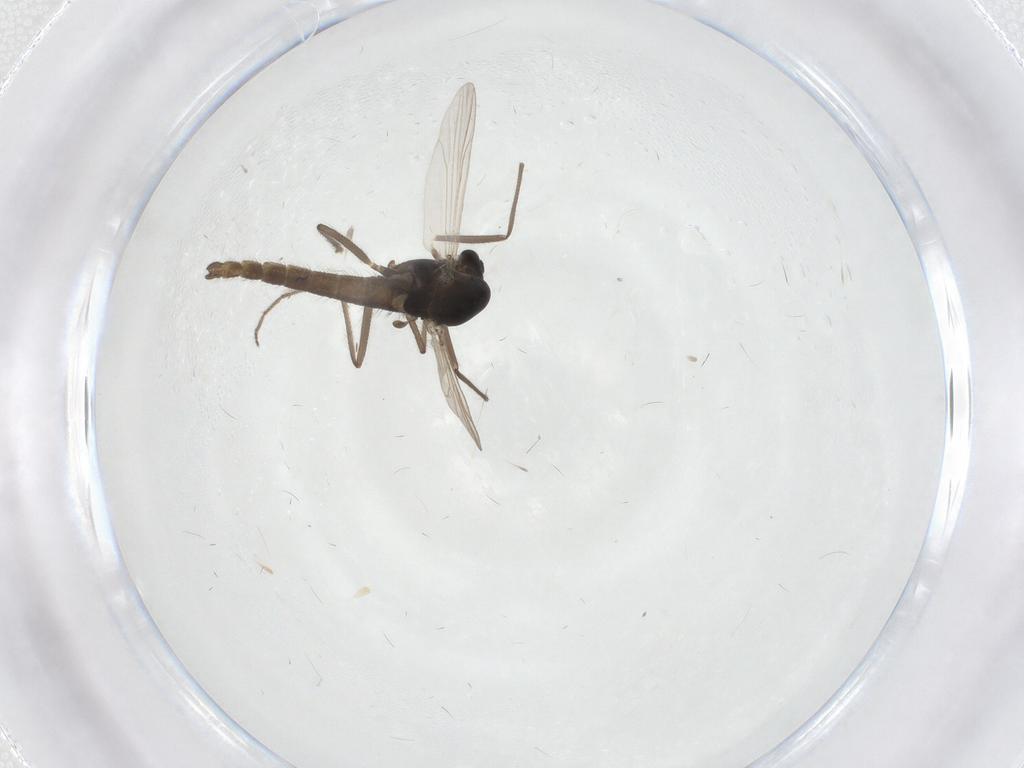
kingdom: Animalia
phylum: Arthropoda
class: Insecta
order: Diptera
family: Chironomidae
